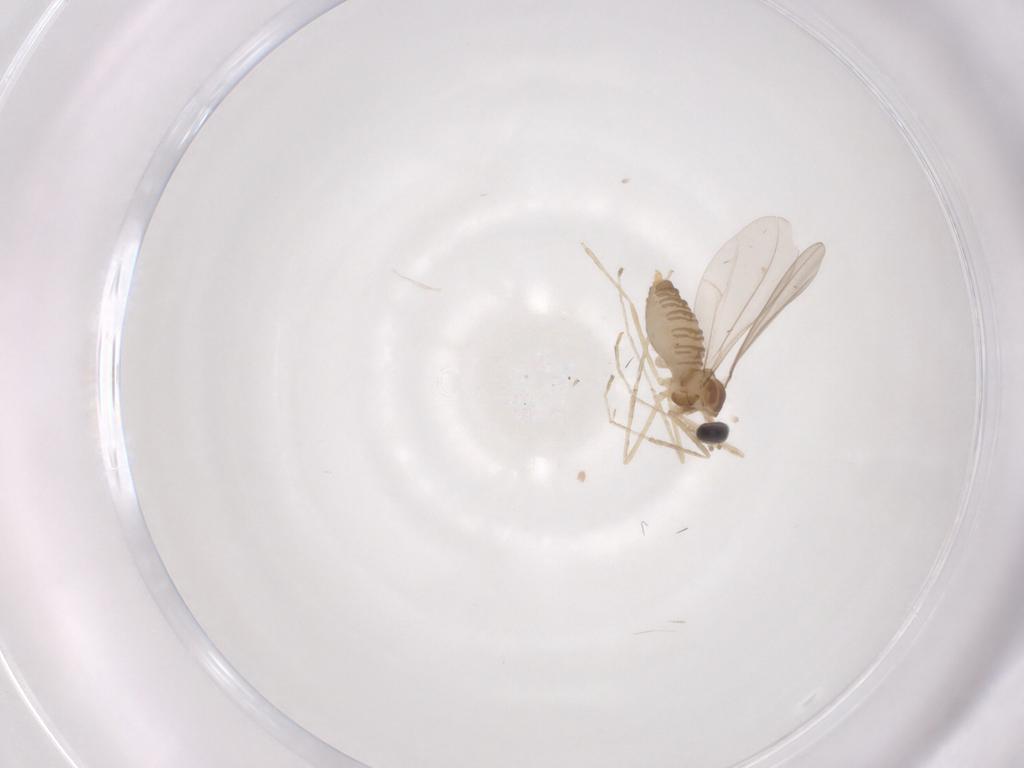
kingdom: Animalia
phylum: Arthropoda
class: Insecta
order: Diptera
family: Cecidomyiidae
